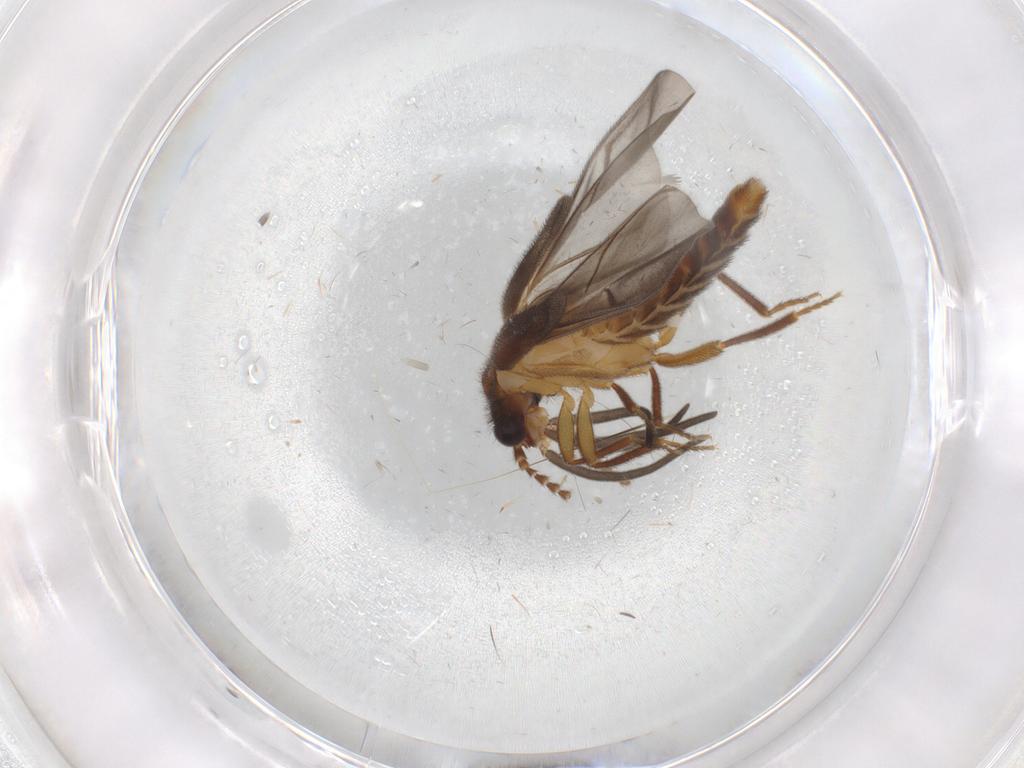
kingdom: Animalia
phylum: Arthropoda
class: Insecta
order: Coleoptera
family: Omethidae
